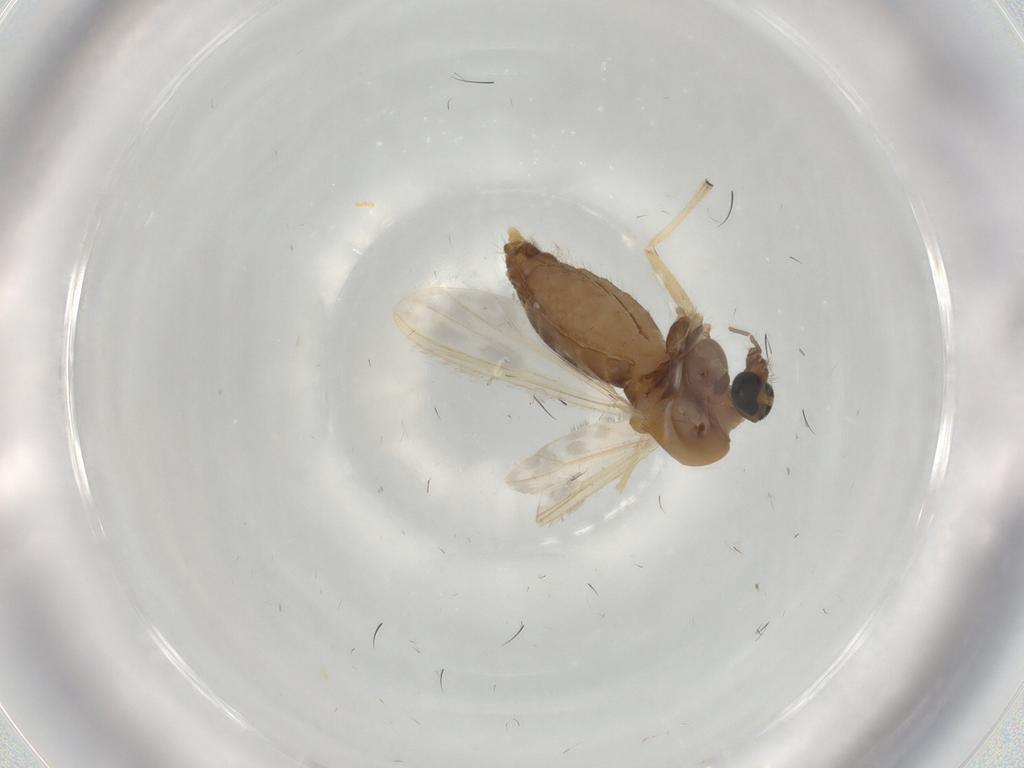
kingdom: Animalia
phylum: Arthropoda
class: Insecta
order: Diptera
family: Chironomidae
